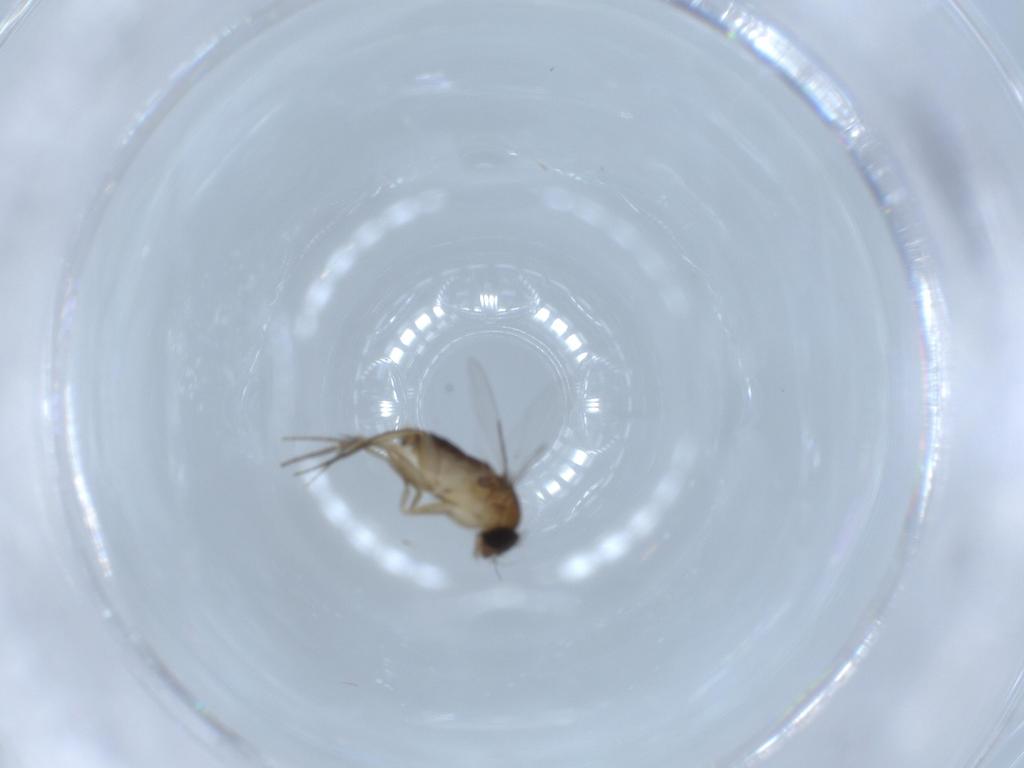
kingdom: Animalia
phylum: Arthropoda
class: Insecta
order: Diptera
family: Phoridae
